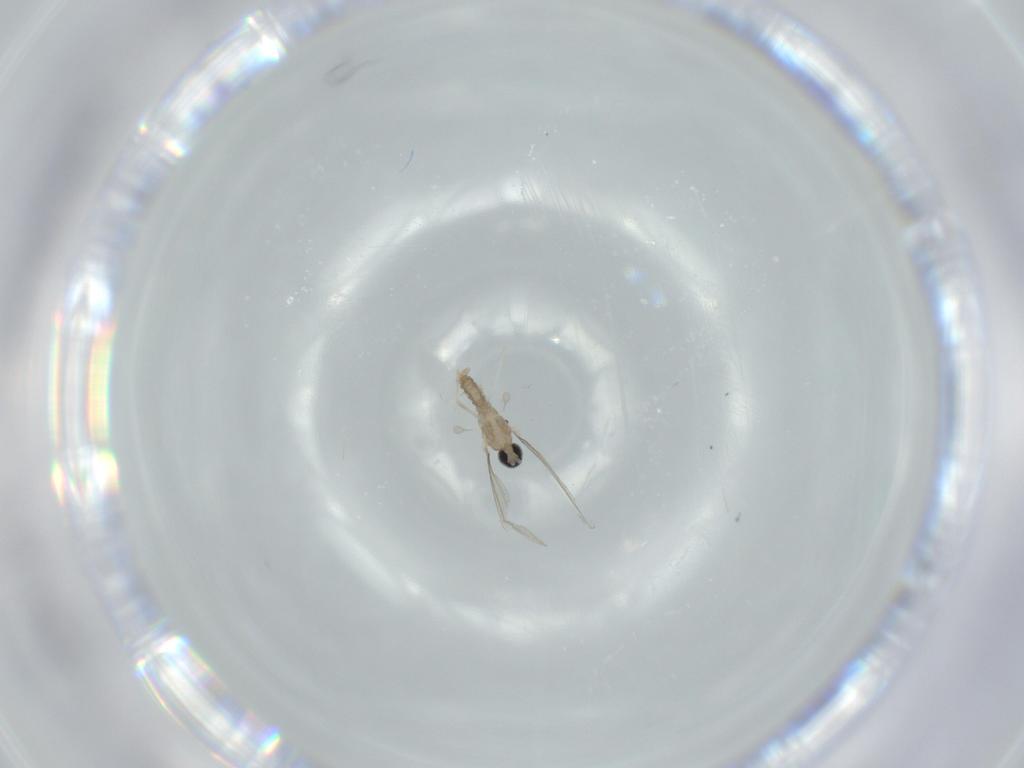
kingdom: Animalia
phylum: Arthropoda
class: Insecta
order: Diptera
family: Cecidomyiidae
